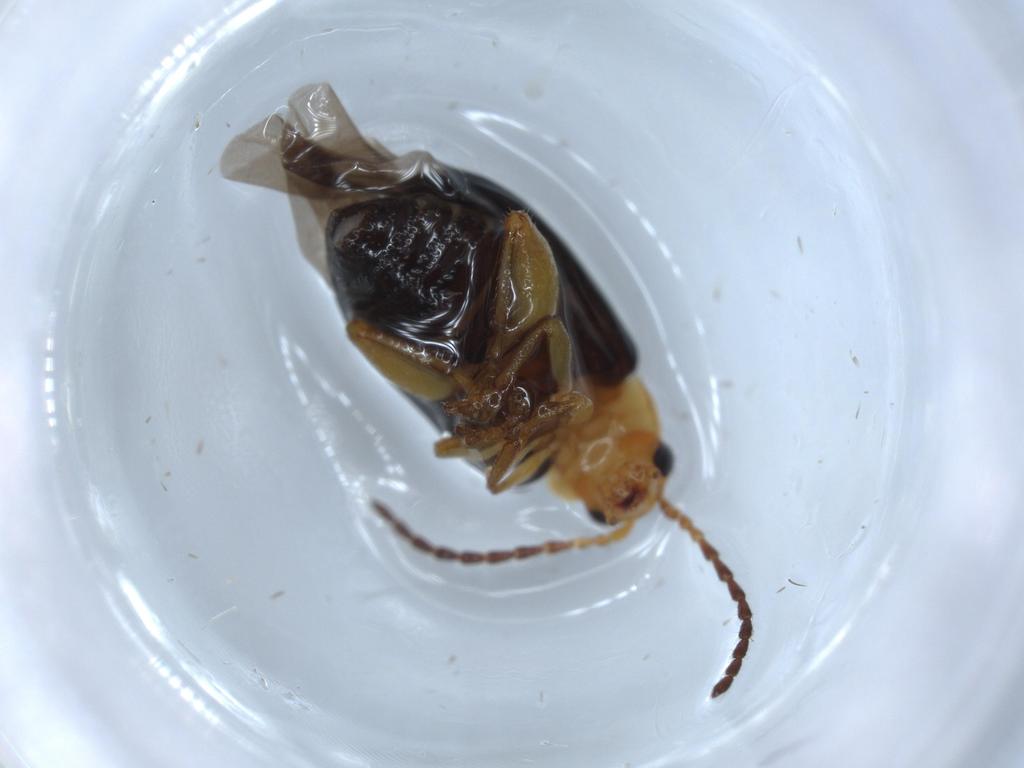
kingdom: Animalia
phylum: Arthropoda
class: Insecta
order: Coleoptera
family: Chrysomelidae
